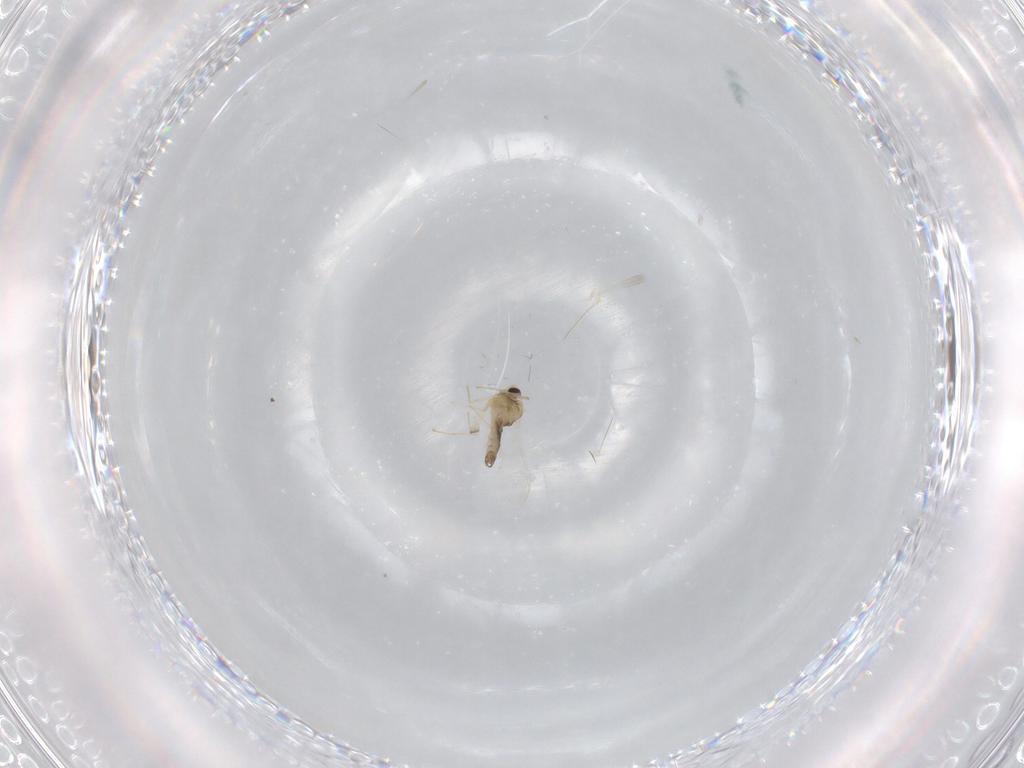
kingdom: Animalia
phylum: Arthropoda
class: Insecta
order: Diptera
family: Chironomidae
